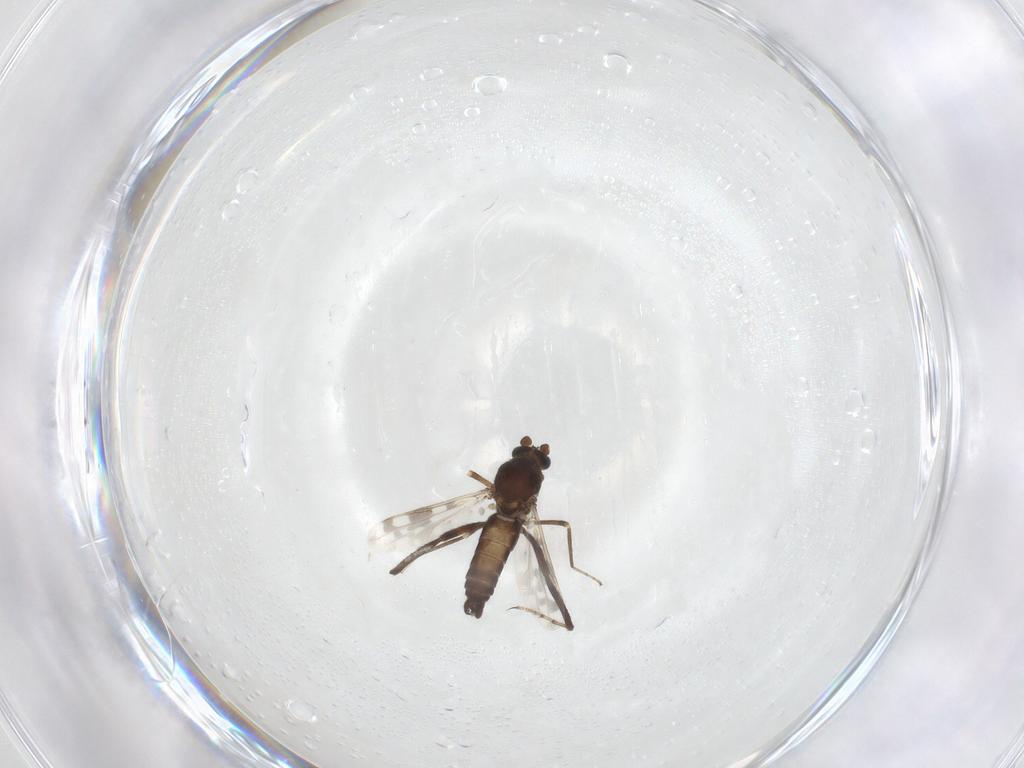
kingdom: Animalia
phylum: Arthropoda
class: Insecta
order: Diptera
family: Ceratopogonidae
